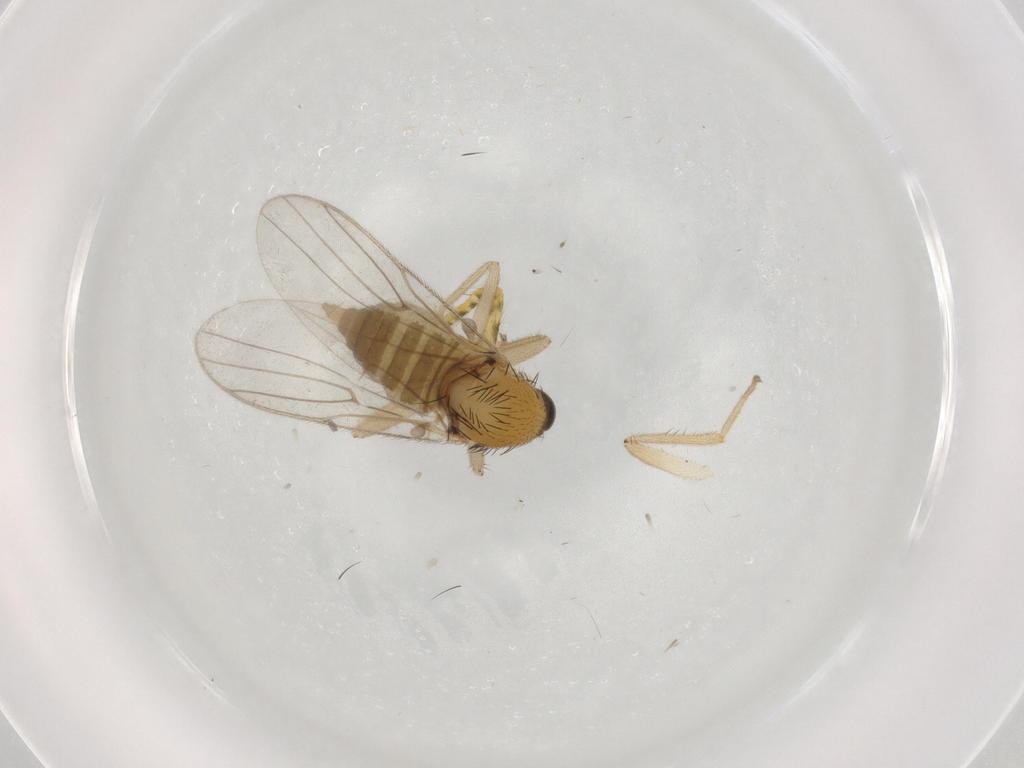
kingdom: Animalia
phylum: Arthropoda
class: Insecta
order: Diptera
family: Hybotidae
